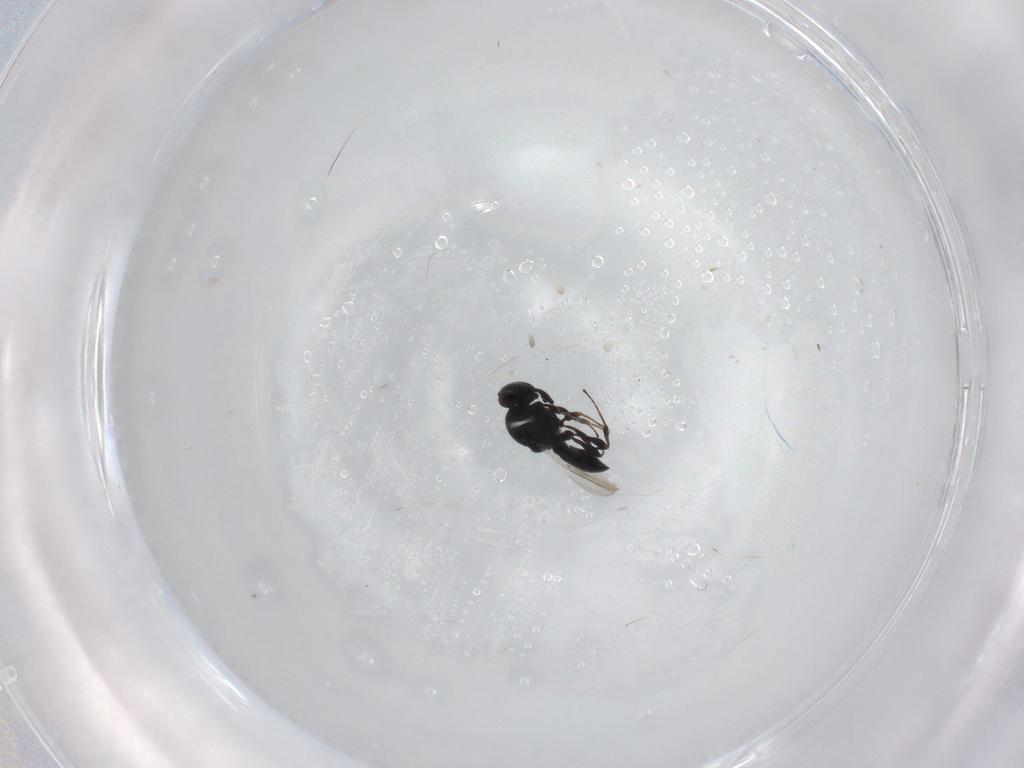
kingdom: Animalia
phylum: Arthropoda
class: Insecta
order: Hymenoptera
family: Platygastridae
